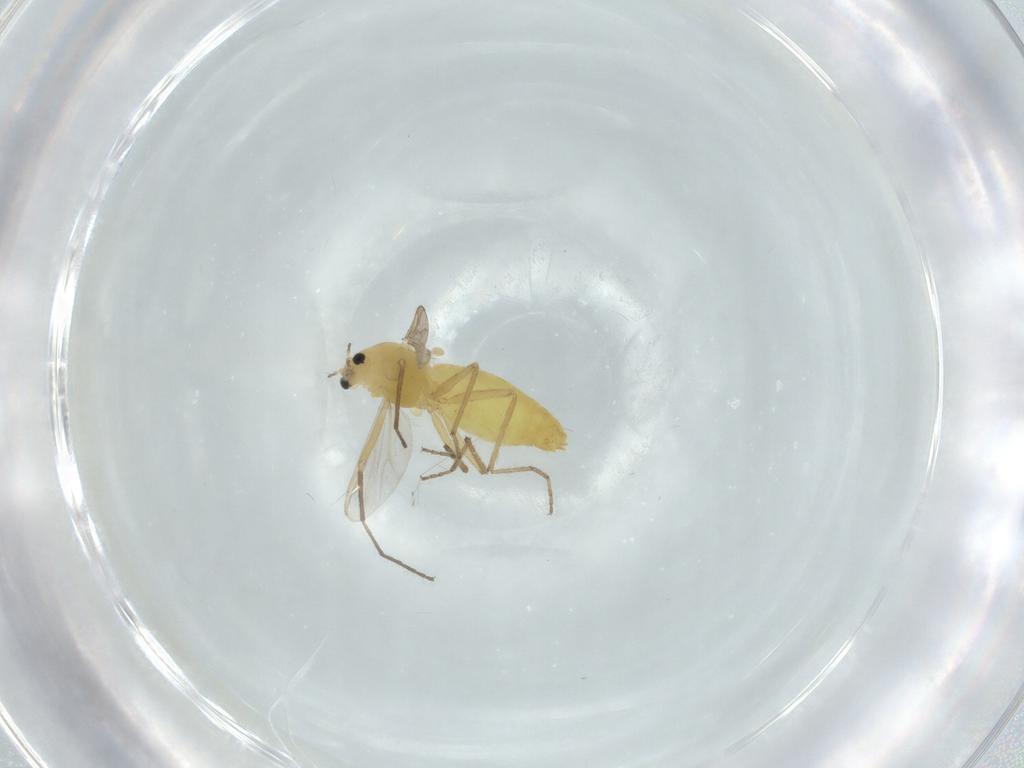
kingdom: Animalia
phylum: Arthropoda
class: Insecta
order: Diptera
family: Chironomidae
